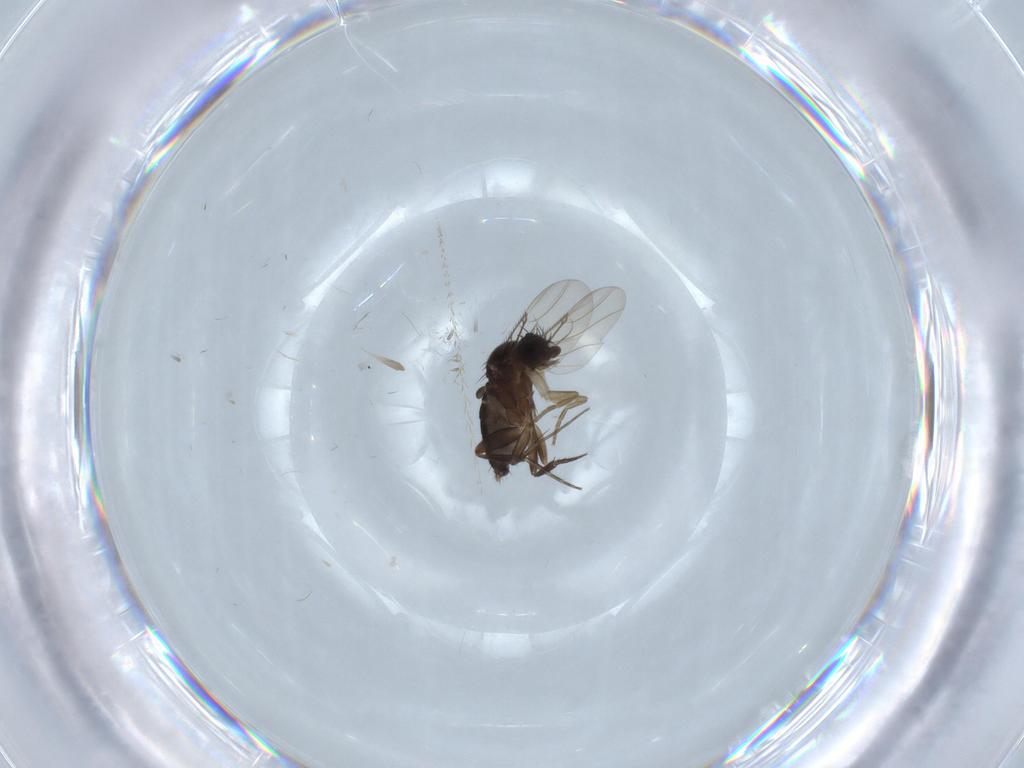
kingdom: Animalia
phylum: Arthropoda
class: Insecta
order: Diptera
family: Phoridae
